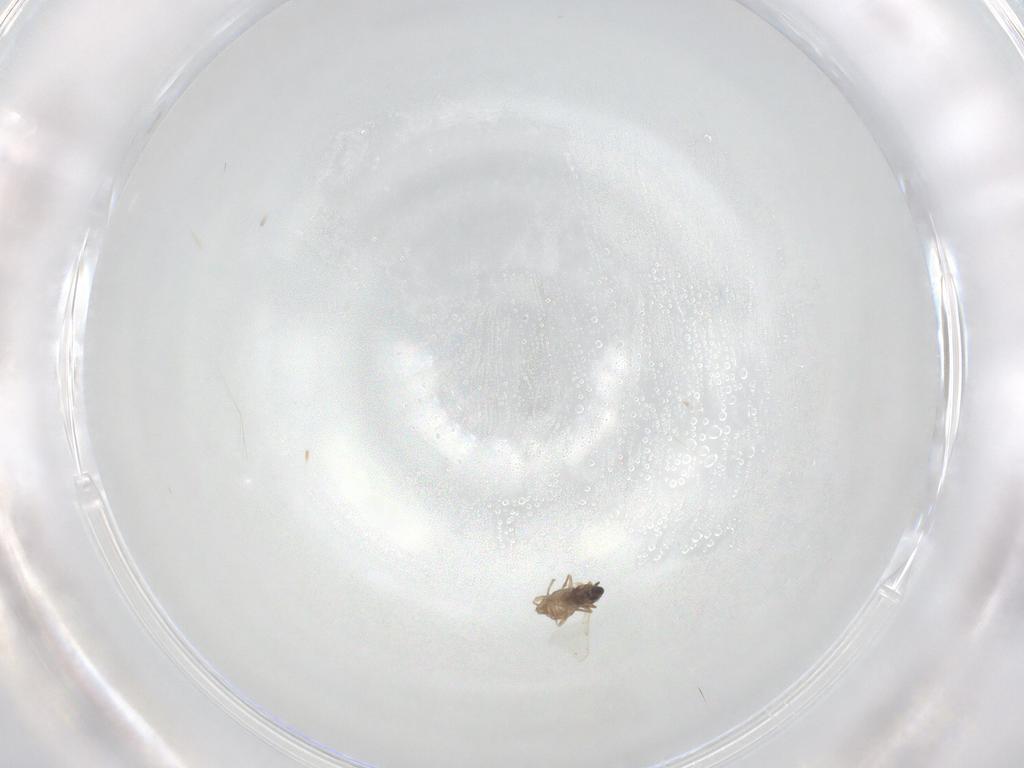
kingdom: Animalia
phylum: Arthropoda
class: Insecta
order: Diptera
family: Cecidomyiidae
